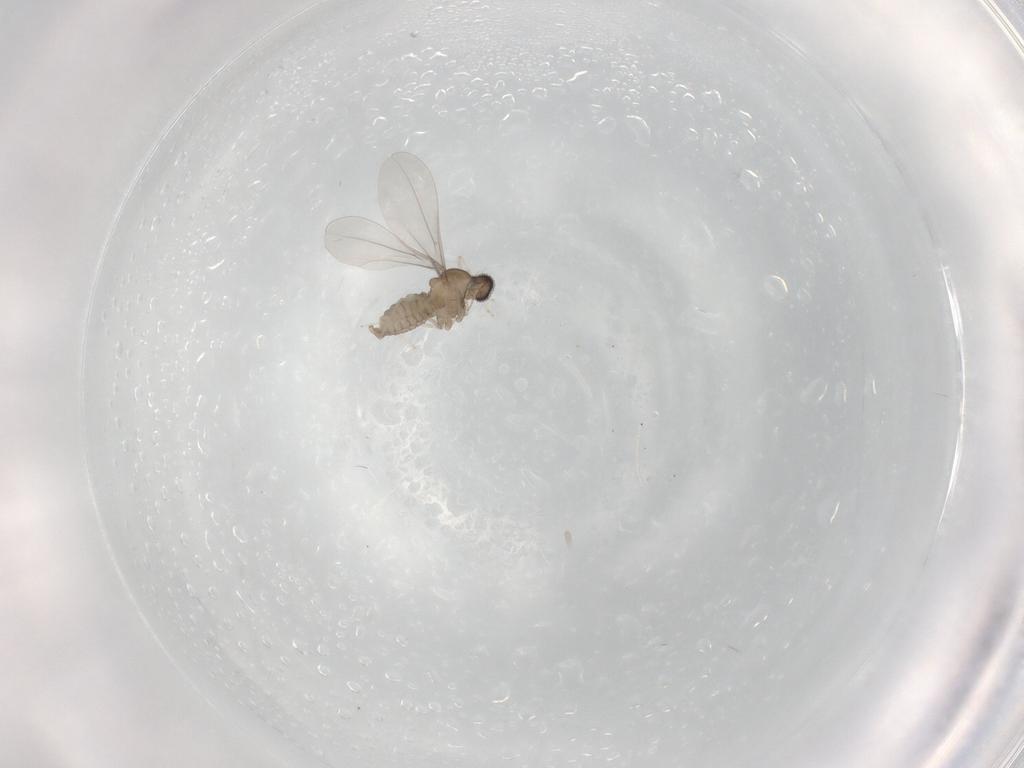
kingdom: Animalia
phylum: Arthropoda
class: Insecta
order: Diptera
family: Cecidomyiidae
